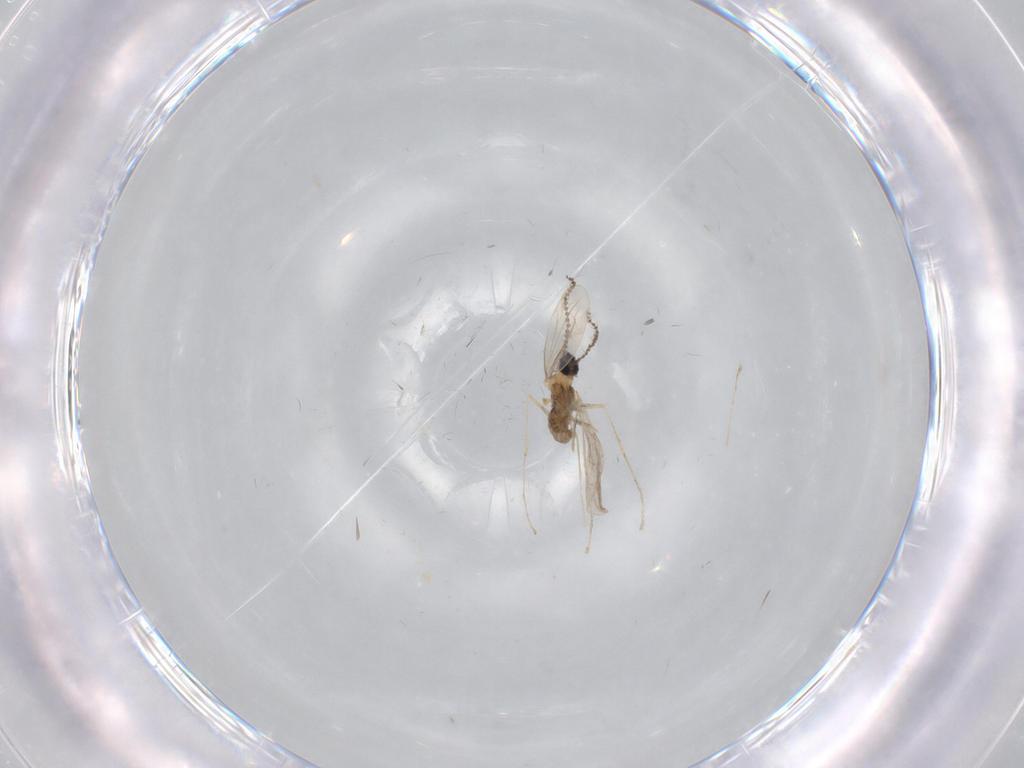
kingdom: Animalia
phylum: Arthropoda
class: Insecta
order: Diptera
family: Cecidomyiidae
